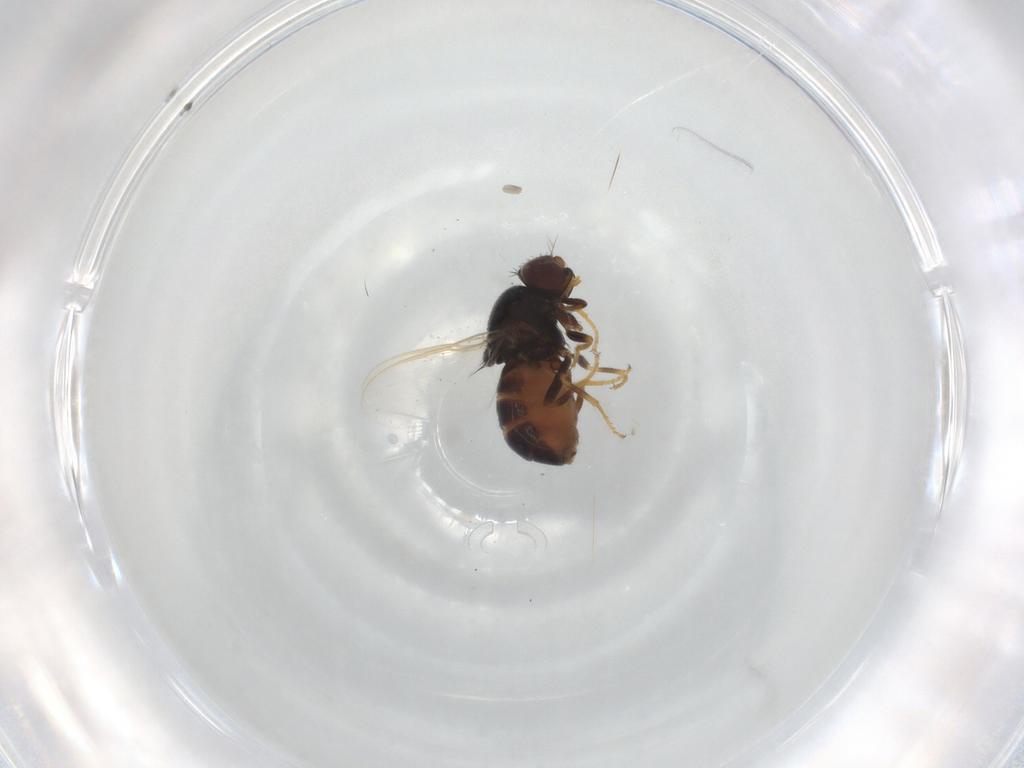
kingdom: Animalia
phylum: Arthropoda
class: Insecta
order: Diptera
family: Chloropidae
